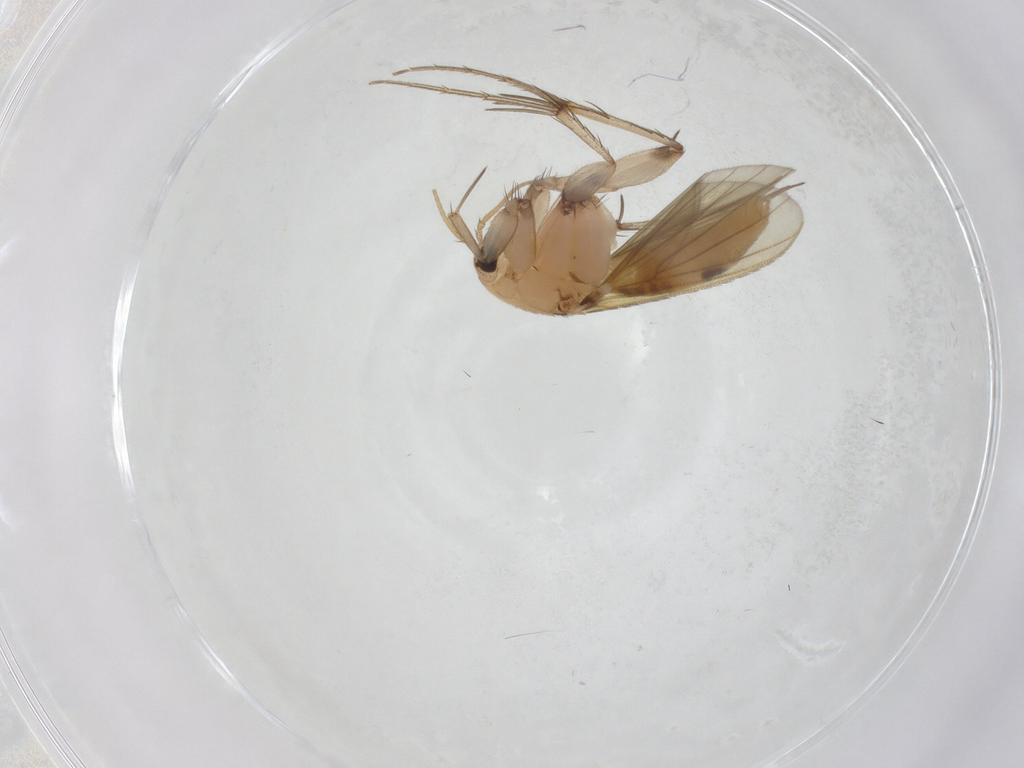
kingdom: Animalia
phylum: Arthropoda
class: Insecta
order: Diptera
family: Mycetophilidae
